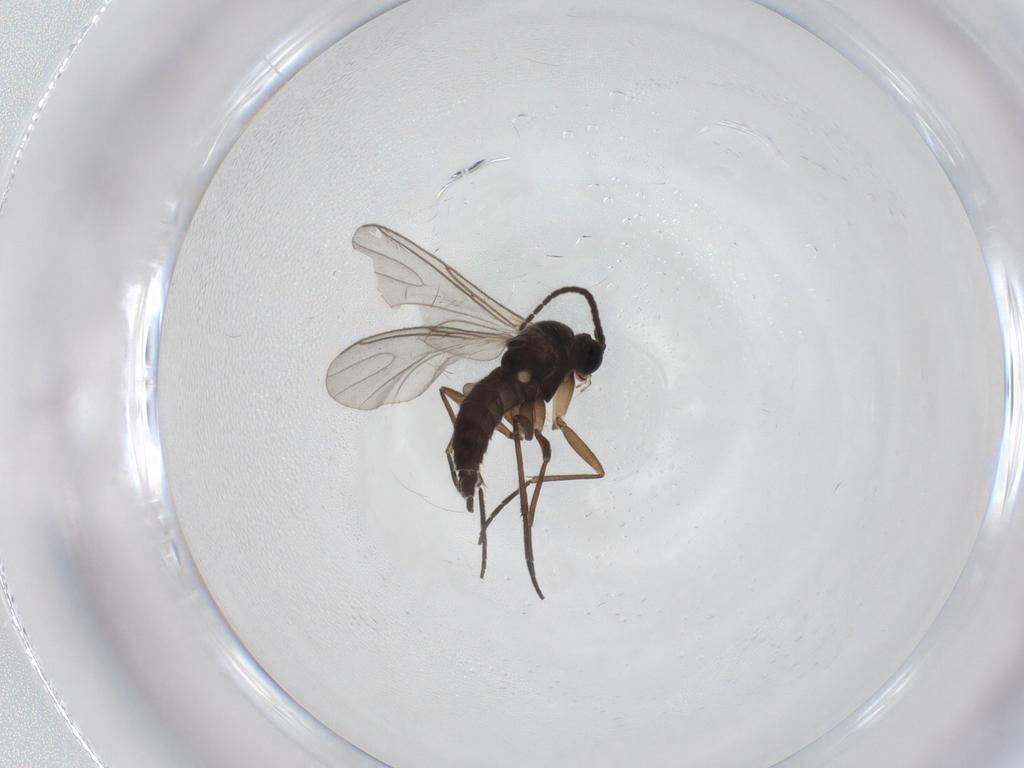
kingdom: Animalia
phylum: Arthropoda
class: Insecta
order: Diptera
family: Sciaridae
